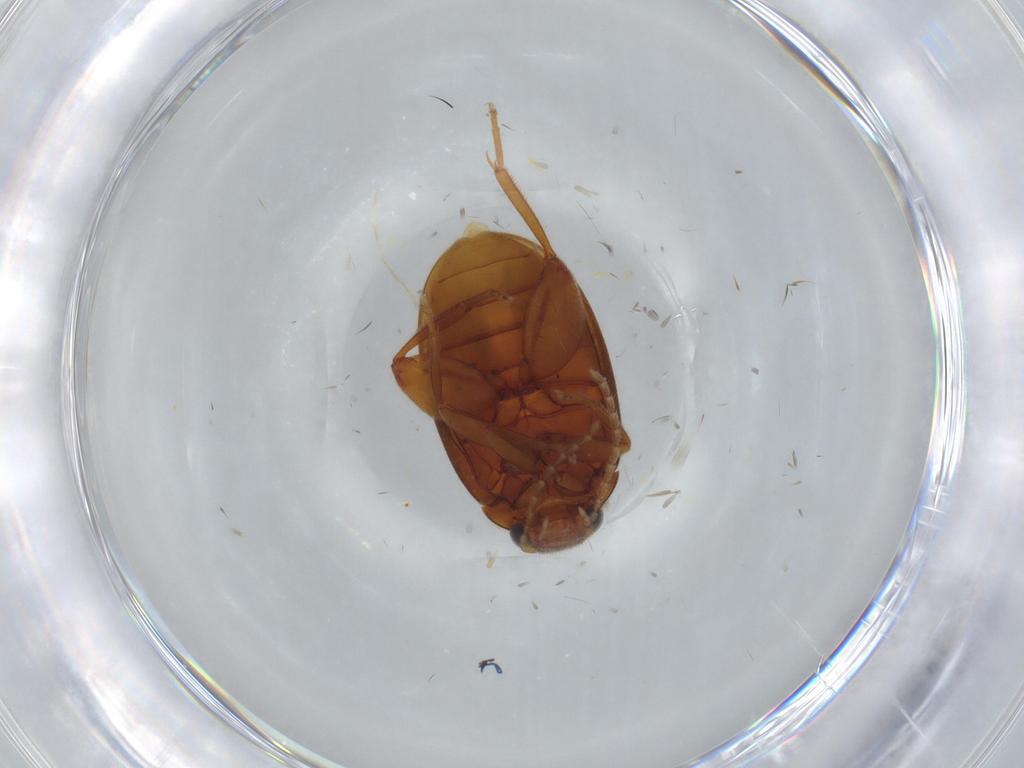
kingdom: Animalia
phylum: Arthropoda
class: Insecta
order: Coleoptera
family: Scirtidae
